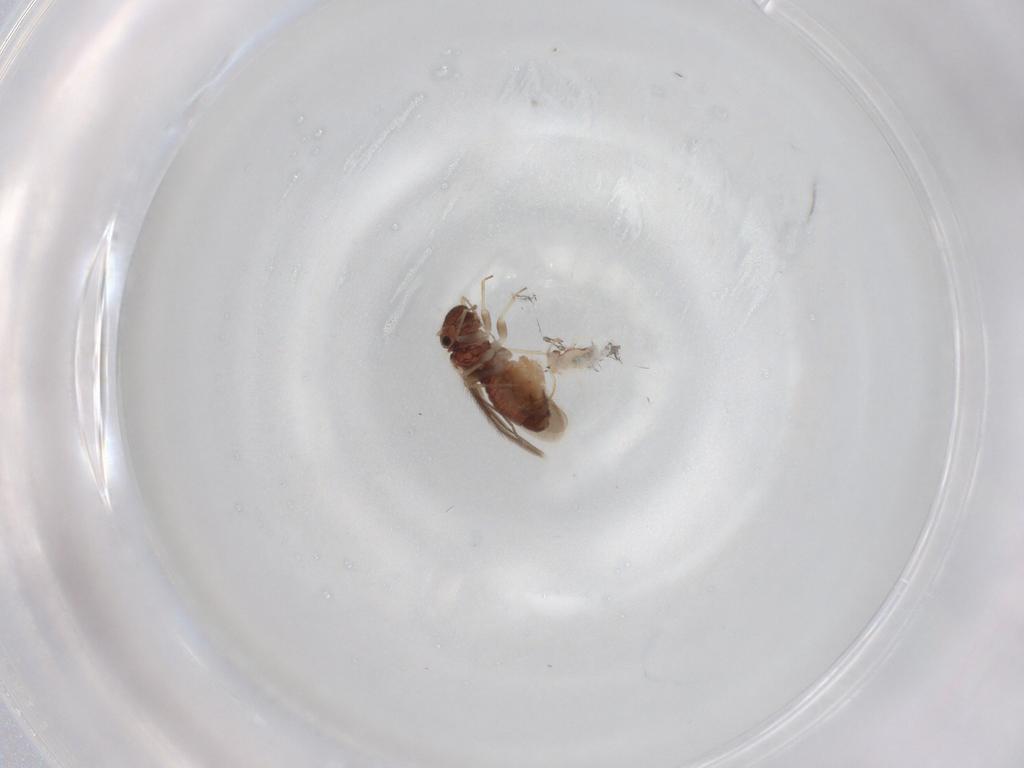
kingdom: Animalia
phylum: Arthropoda
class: Insecta
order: Psocodea
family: Archipsocidae
